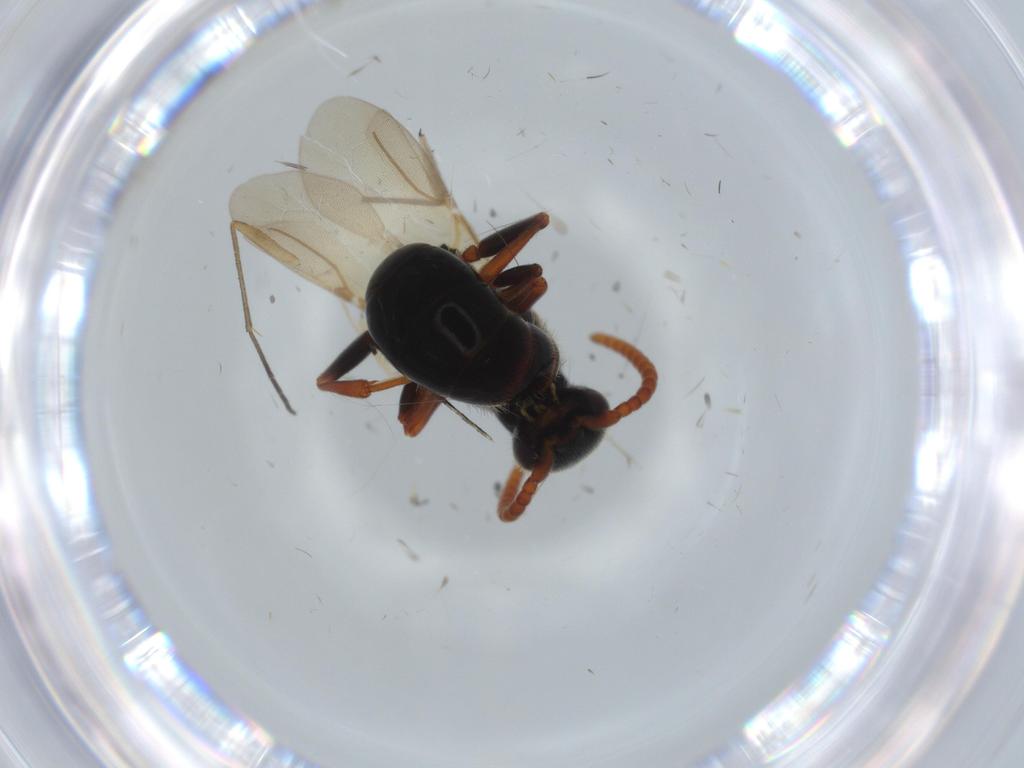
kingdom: Animalia
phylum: Arthropoda
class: Insecta
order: Hymenoptera
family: Bethylidae
